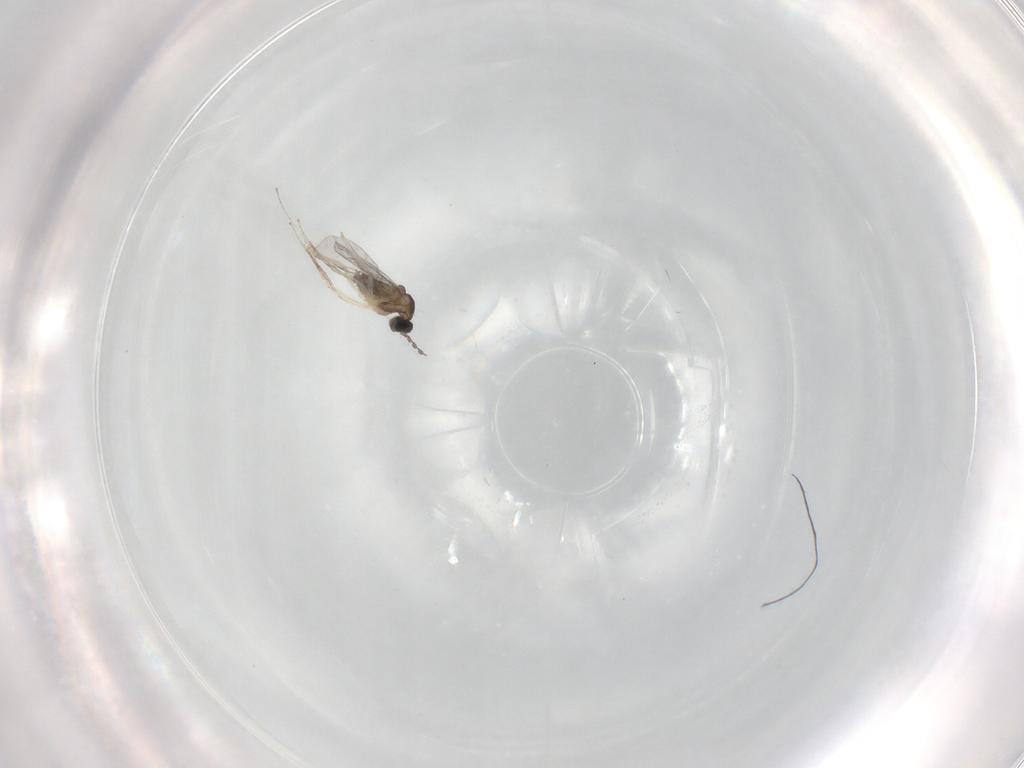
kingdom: Animalia
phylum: Arthropoda
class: Insecta
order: Diptera
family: Cecidomyiidae
